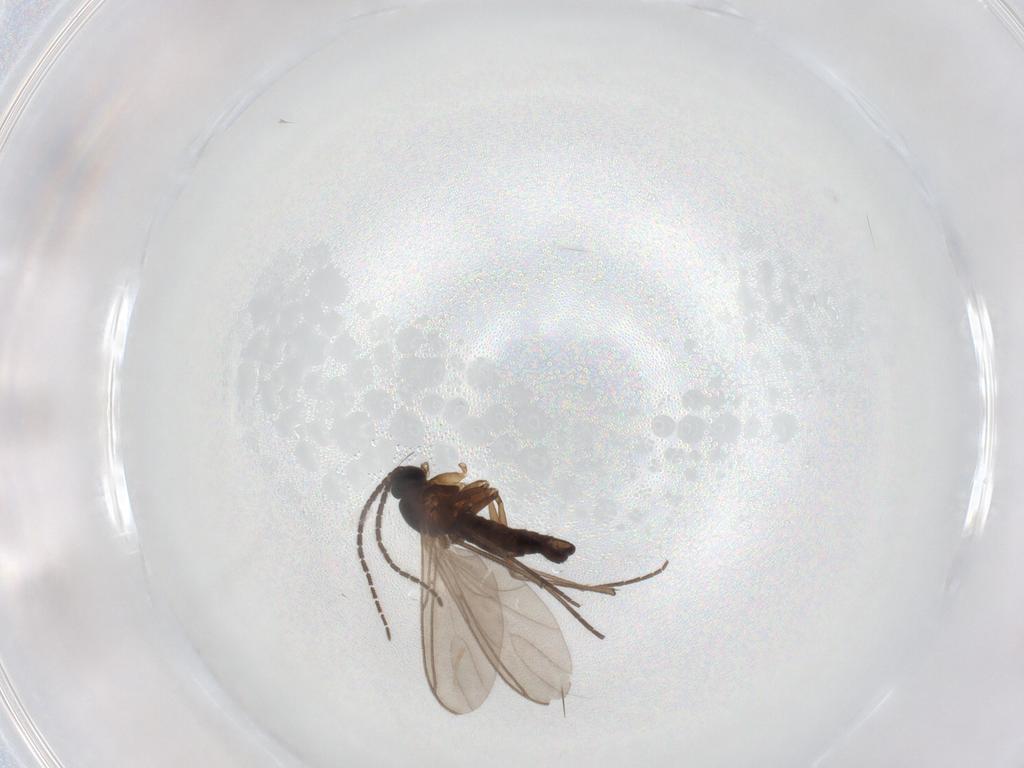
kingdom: Animalia
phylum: Arthropoda
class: Insecta
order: Diptera
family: Sciaridae
